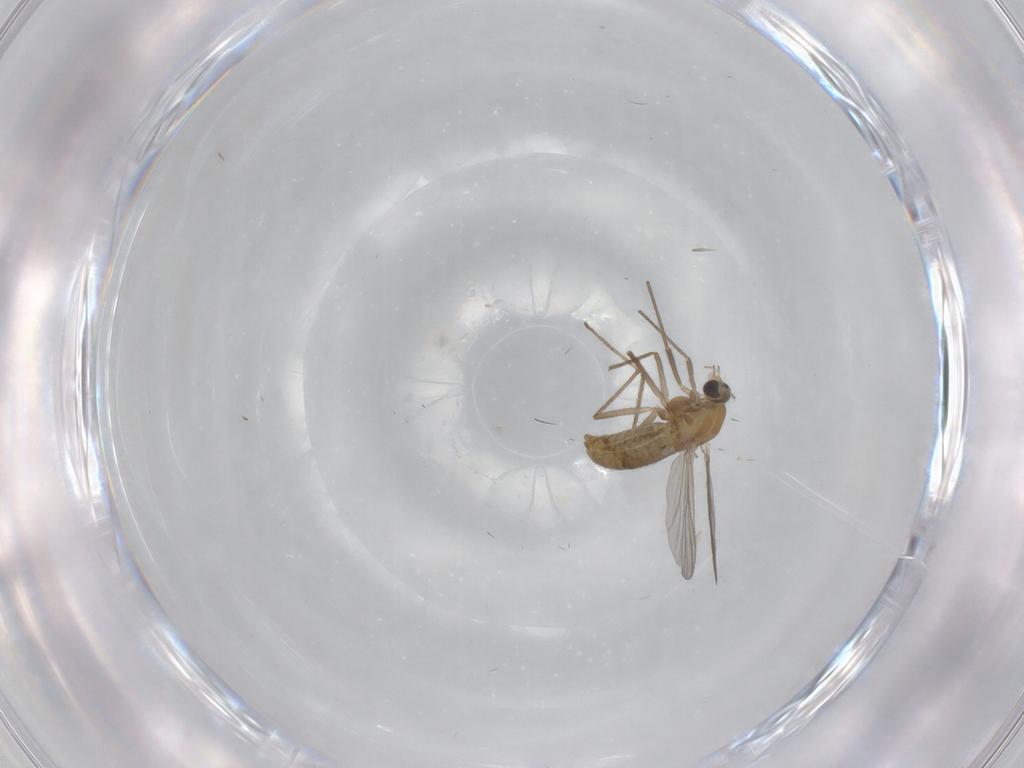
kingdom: Animalia
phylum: Arthropoda
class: Insecta
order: Diptera
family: Chironomidae
